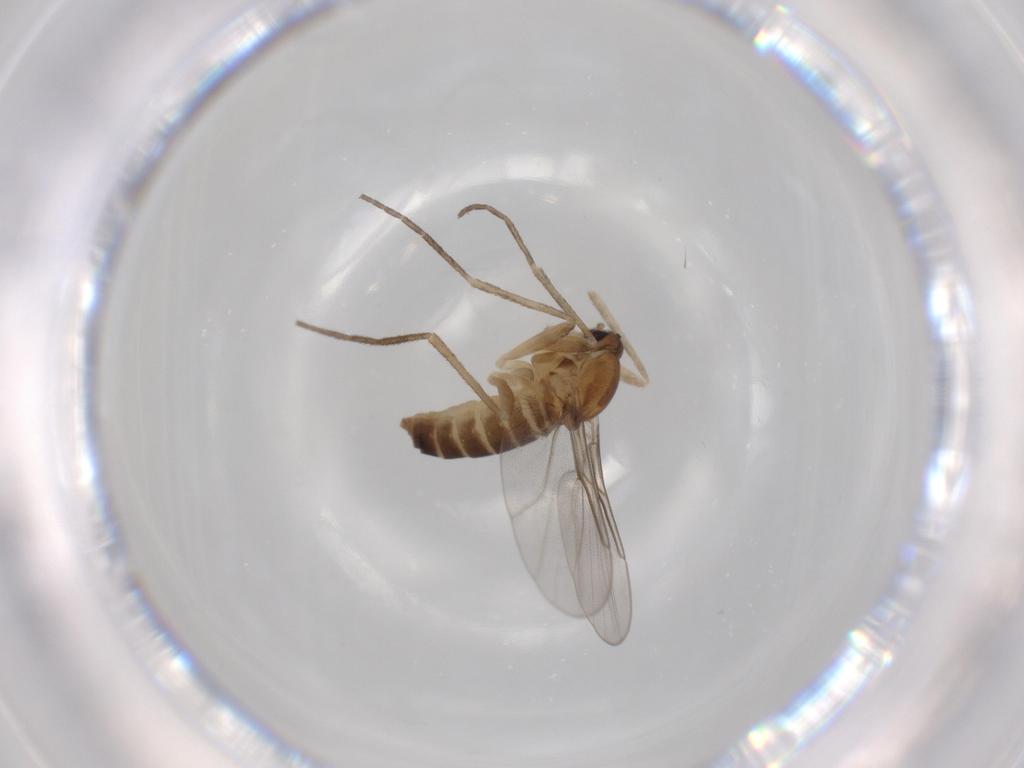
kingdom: Animalia
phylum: Arthropoda
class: Insecta
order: Diptera
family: Cecidomyiidae
